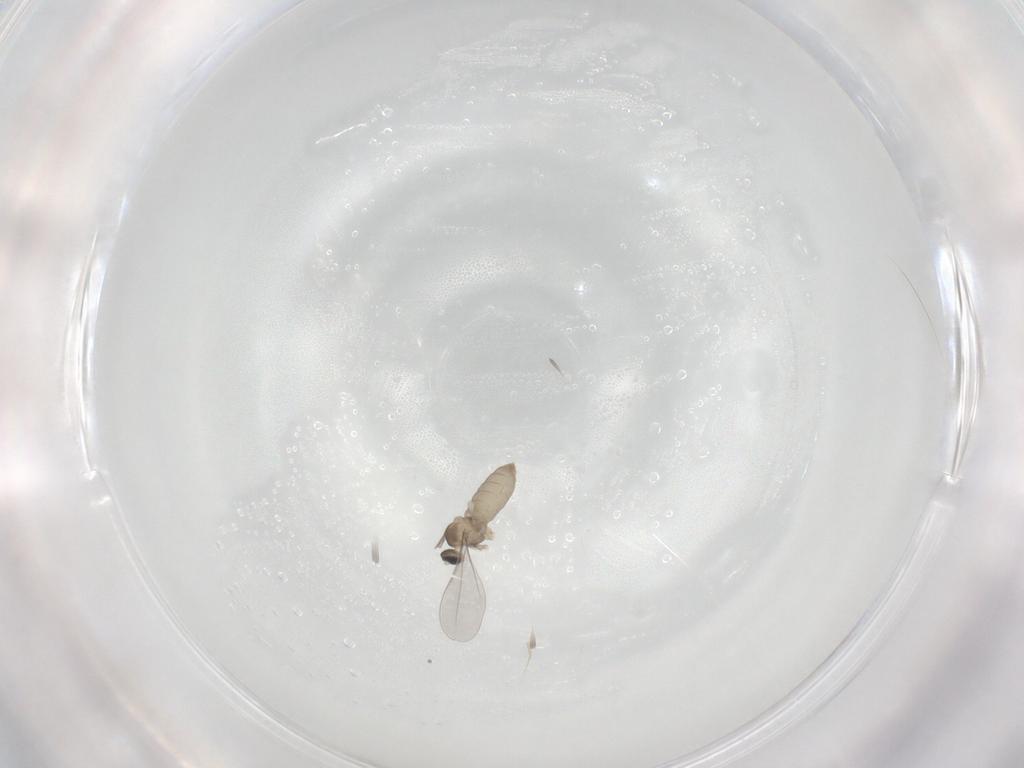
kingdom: Animalia
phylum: Arthropoda
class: Insecta
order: Diptera
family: Cecidomyiidae
